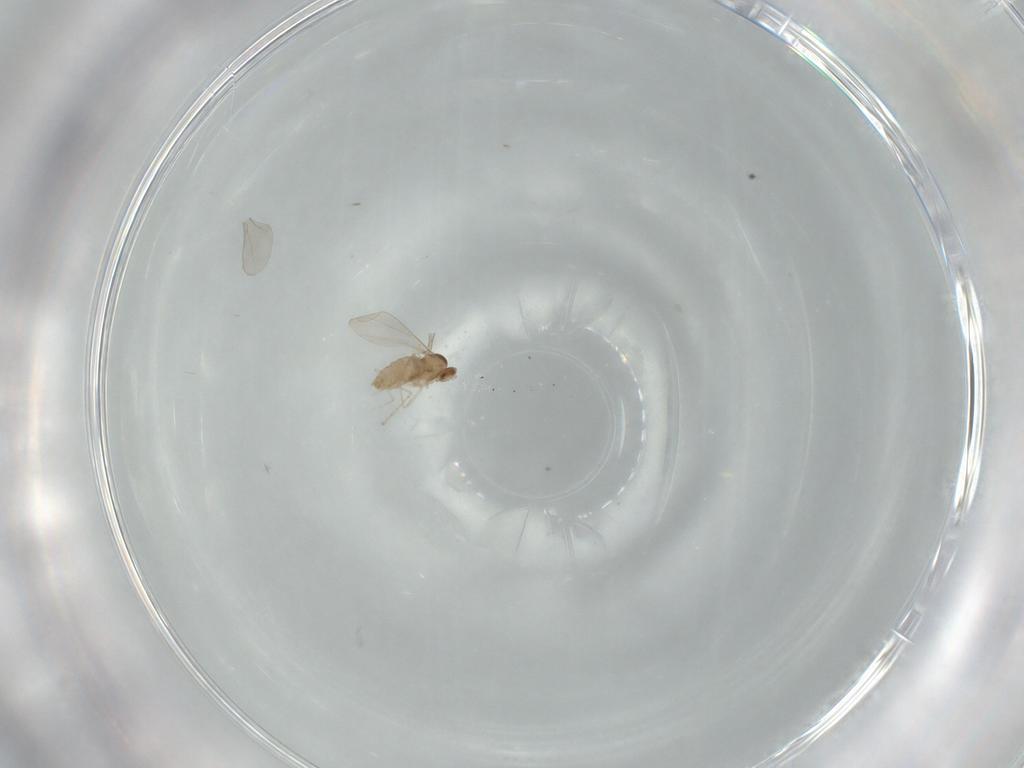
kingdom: Animalia
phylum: Arthropoda
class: Insecta
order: Diptera
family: Cecidomyiidae
